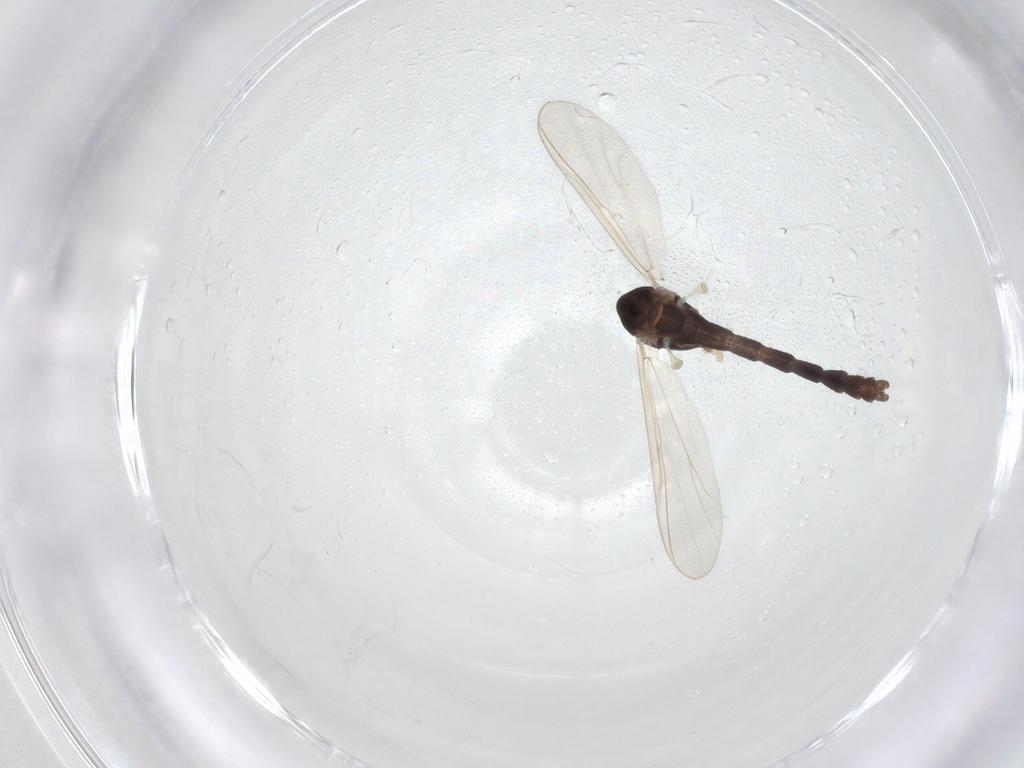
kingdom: Animalia
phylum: Arthropoda
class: Insecta
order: Diptera
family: Chironomidae
